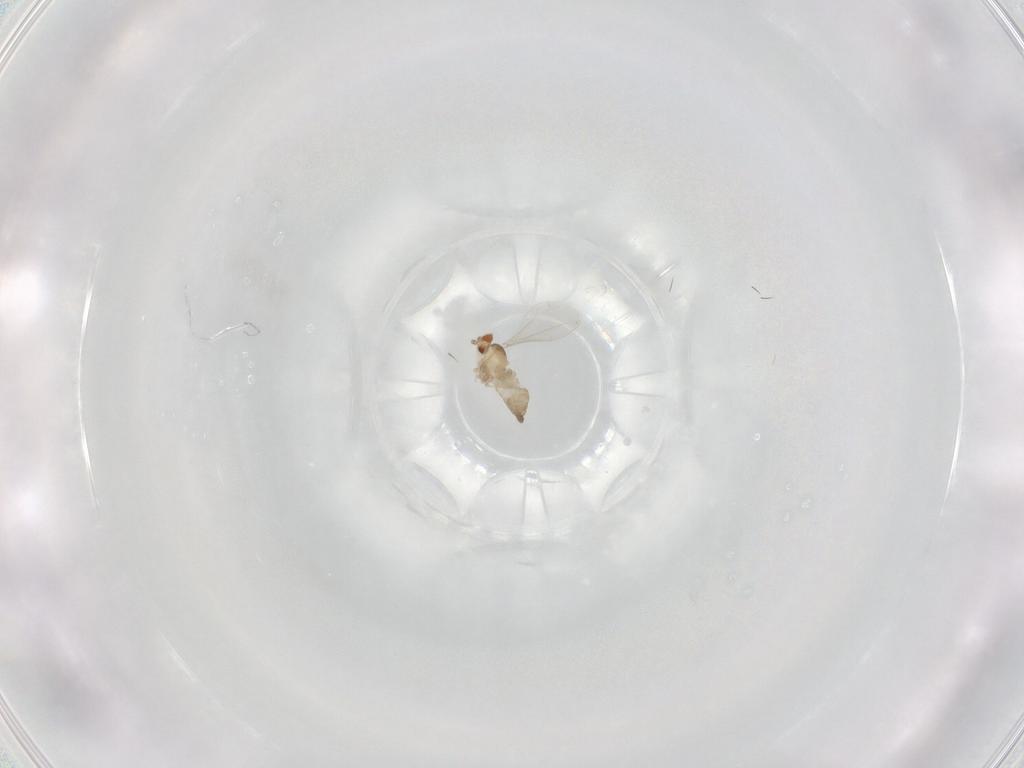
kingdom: Animalia
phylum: Arthropoda
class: Insecta
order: Diptera
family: Cecidomyiidae
